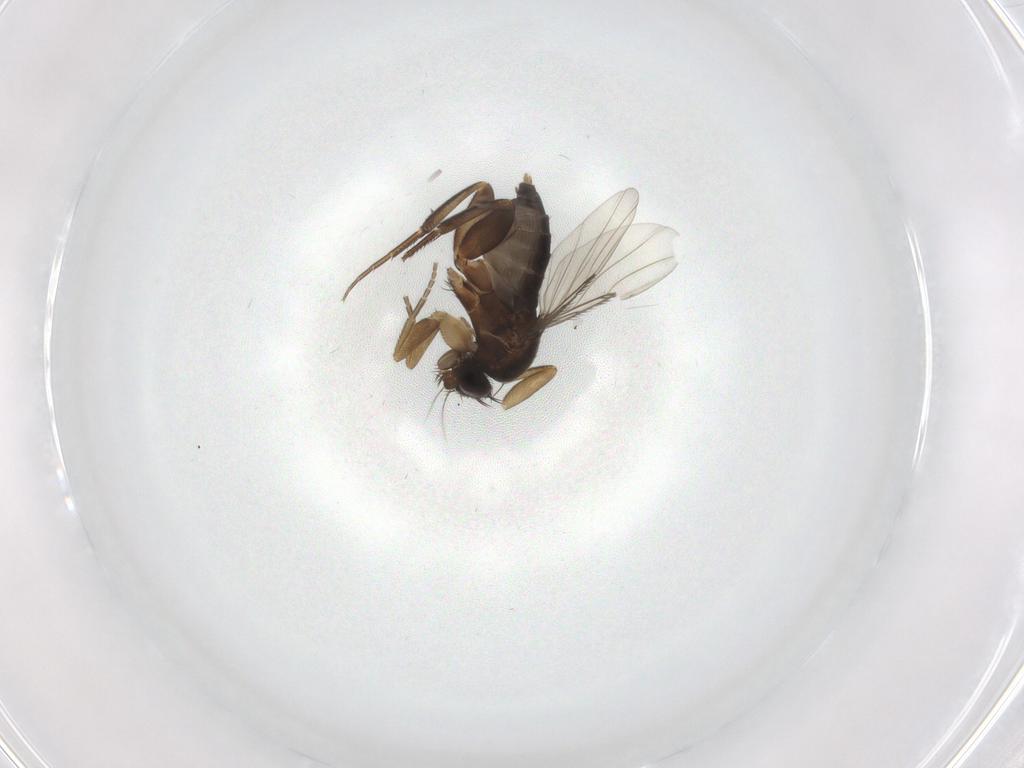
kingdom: Animalia
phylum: Arthropoda
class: Insecta
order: Diptera
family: Phoridae
